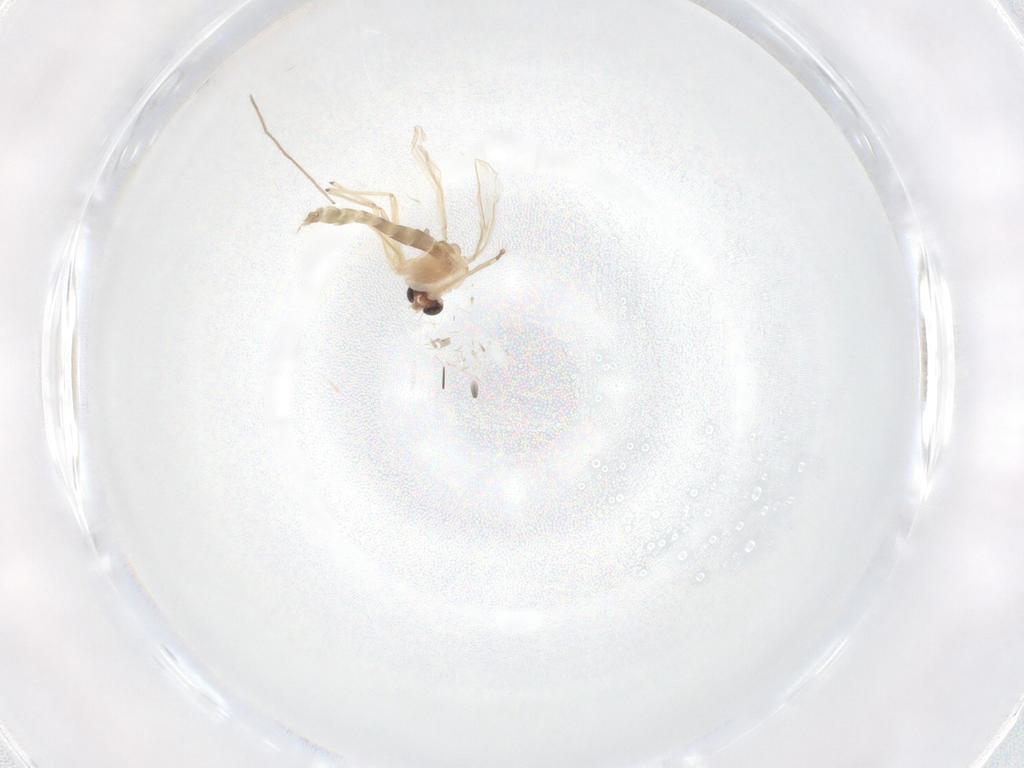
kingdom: Animalia
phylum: Arthropoda
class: Insecta
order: Diptera
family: Chironomidae
